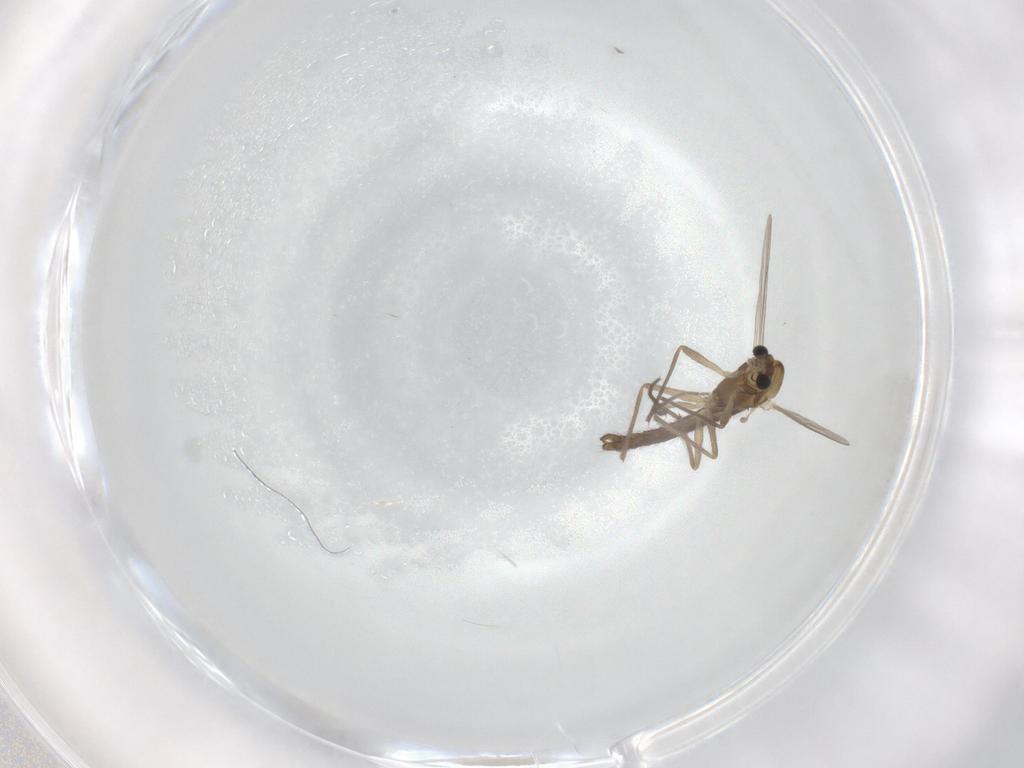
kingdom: Animalia
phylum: Arthropoda
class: Insecta
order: Diptera
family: Chironomidae
